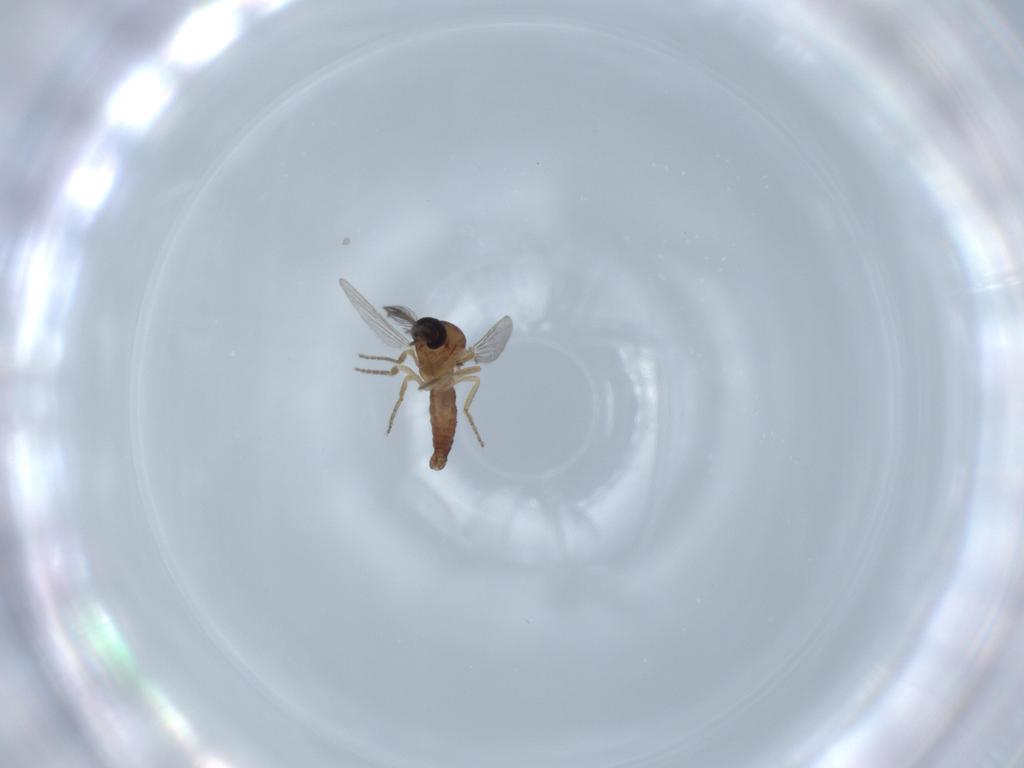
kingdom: Animalia
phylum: Arthropoda
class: Insecta
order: Diptera
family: Ceratopogonidae
